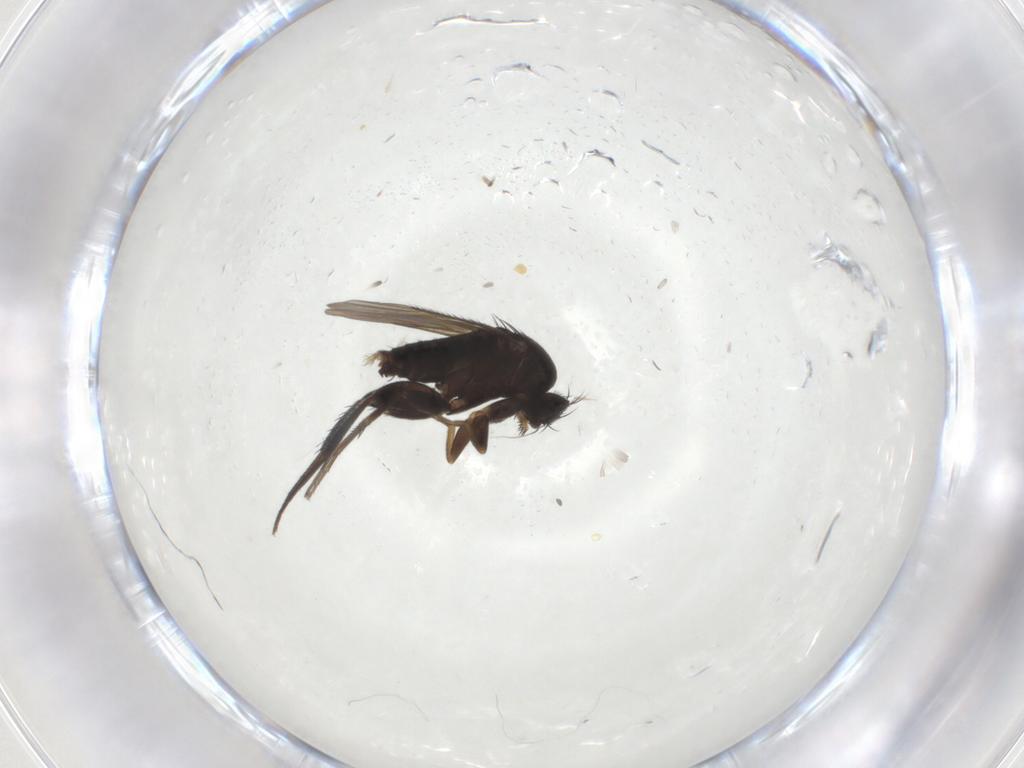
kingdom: Animalia
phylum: Arthropoda
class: Insecta
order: Diptera
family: Phoridae
